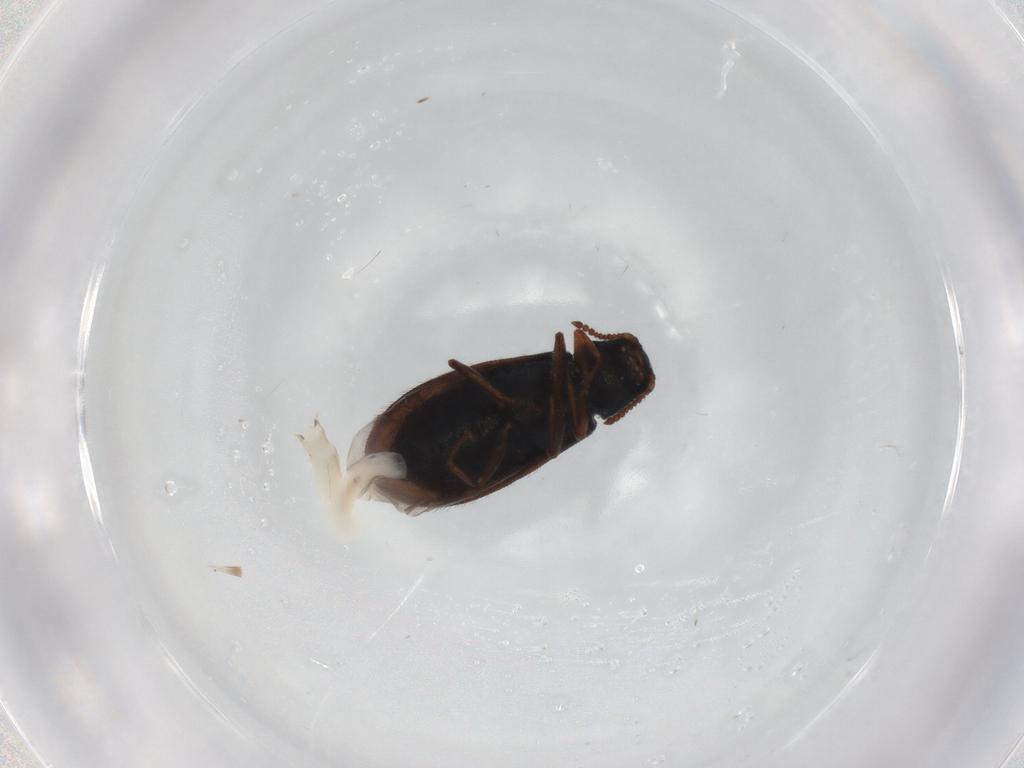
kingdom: Animalia
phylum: Arthropoda
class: Insecta
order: Coleoptera
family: Melyridae
